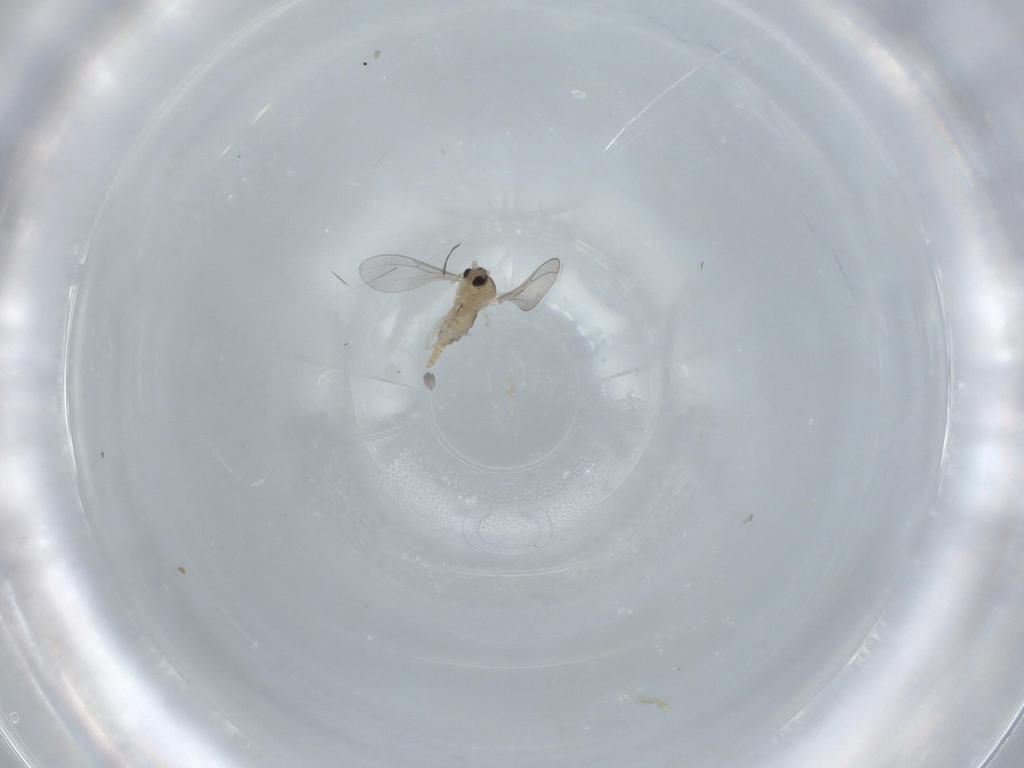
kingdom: Animalia
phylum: Arthropoda
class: Insecta
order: Diptera
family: Cecidomyiidae
